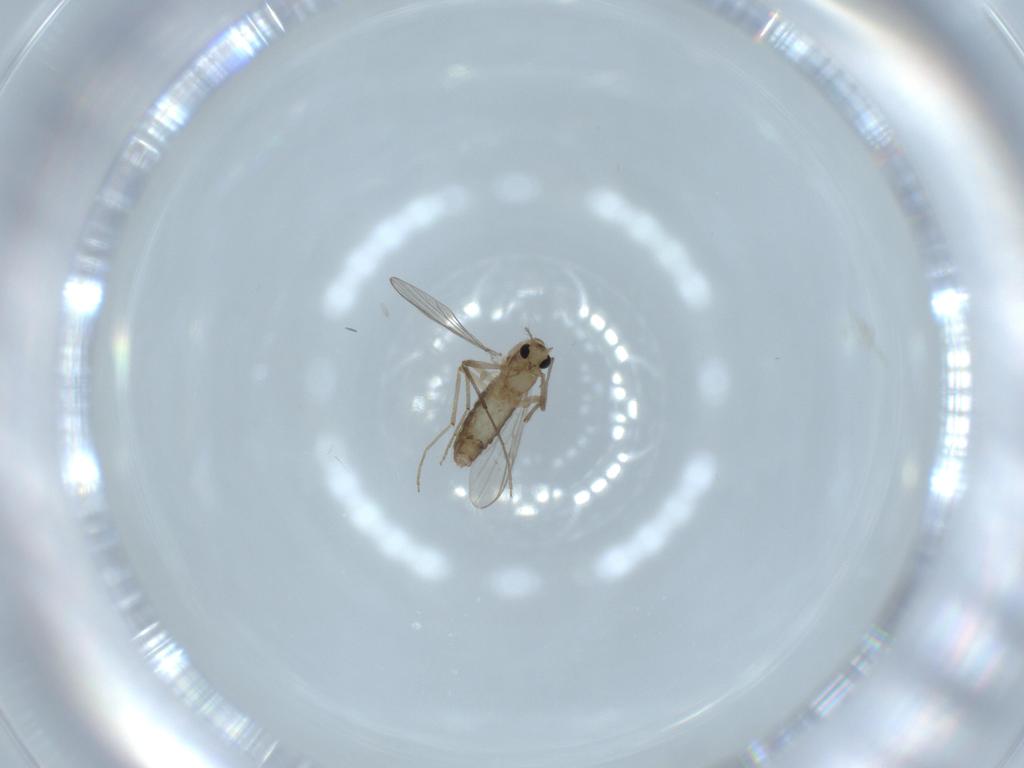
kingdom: Animalia
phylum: Arthropoda
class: Insecta
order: Diptera
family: Chironomidae
